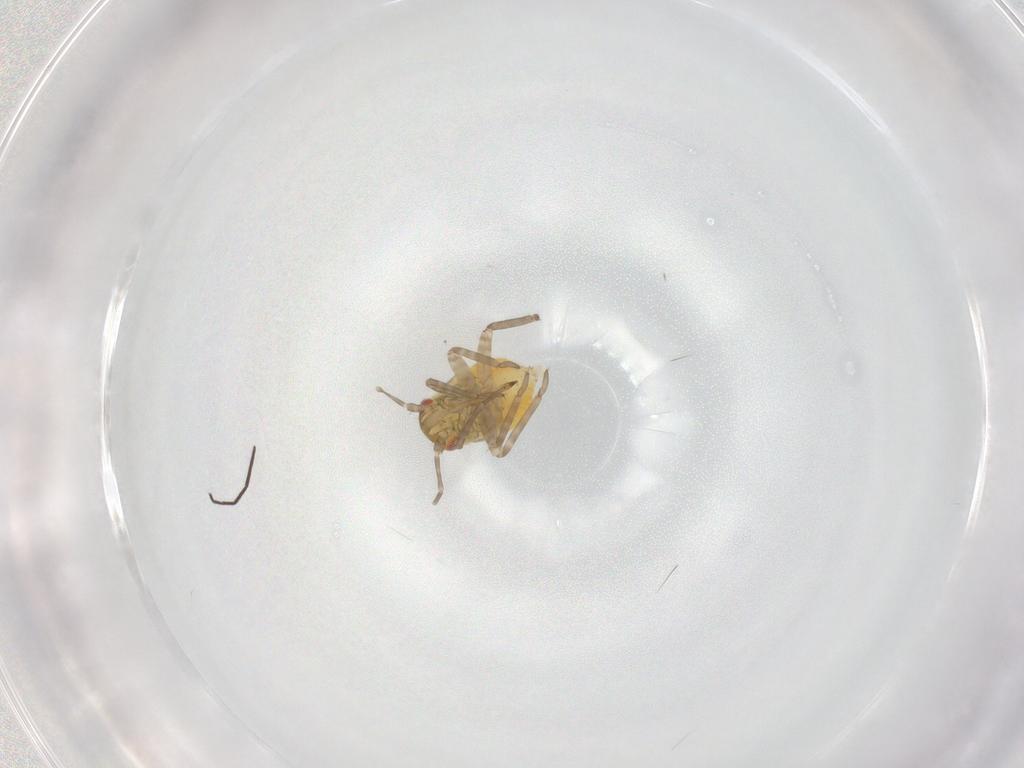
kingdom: Animalia
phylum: Arthropoda
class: Insecta
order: Hemiptera
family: Miridae
